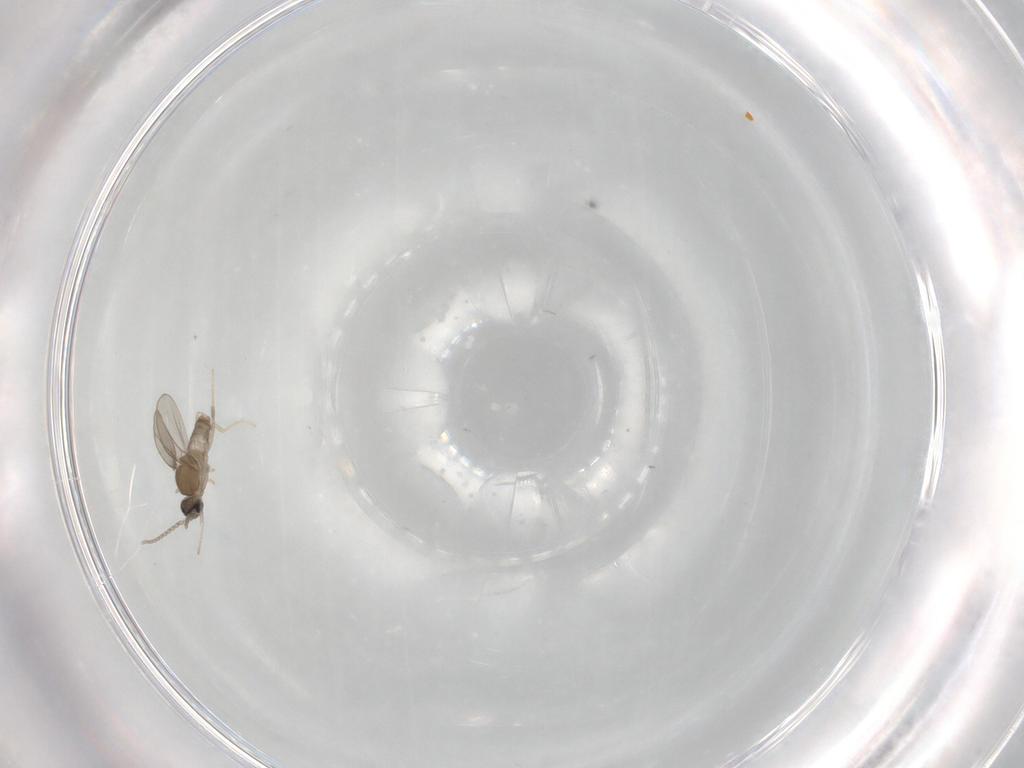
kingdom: Animalia
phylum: Arthropoda
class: Insecta
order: Diptera
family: Cecidomyiidae
